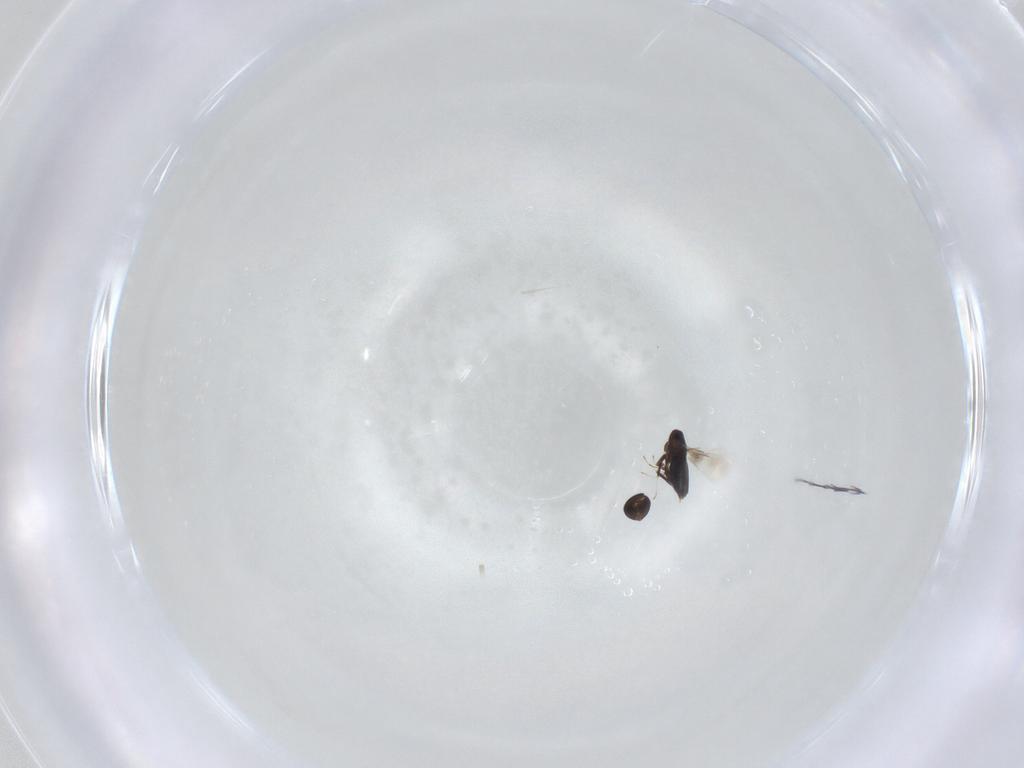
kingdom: Animalia
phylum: Arthropoda
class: Insecta
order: Hymenoptera
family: Signiphoridae
